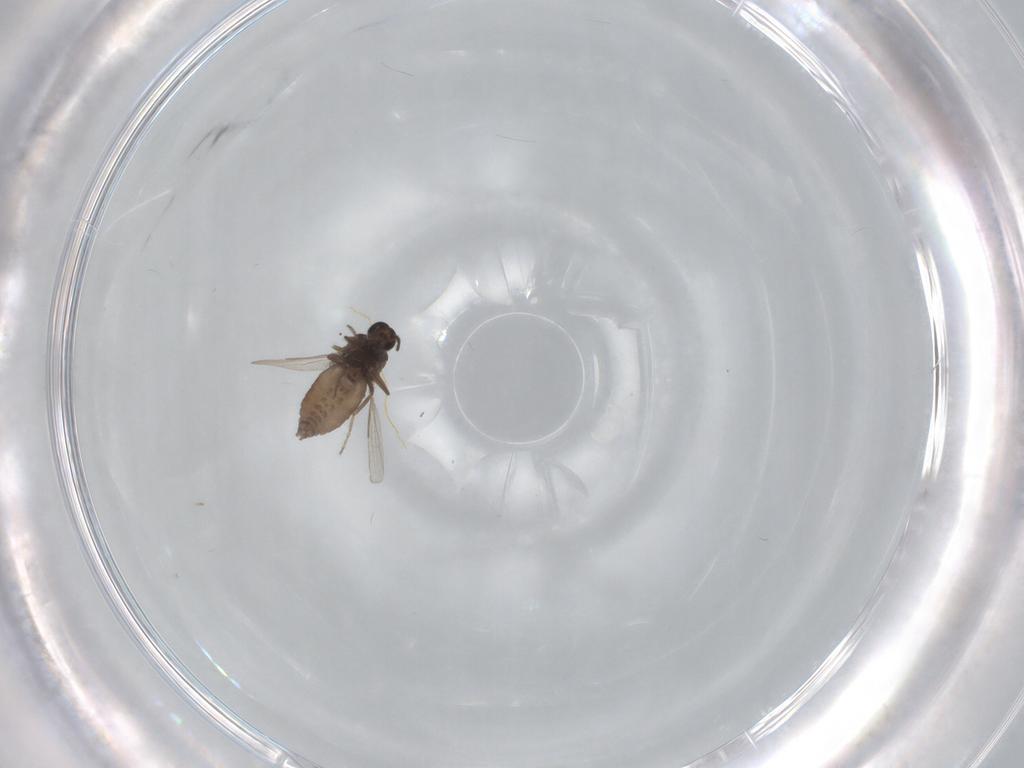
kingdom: Animalia
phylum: Arthropoda
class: Insecta
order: Diptera
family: Ceratopogonidae
